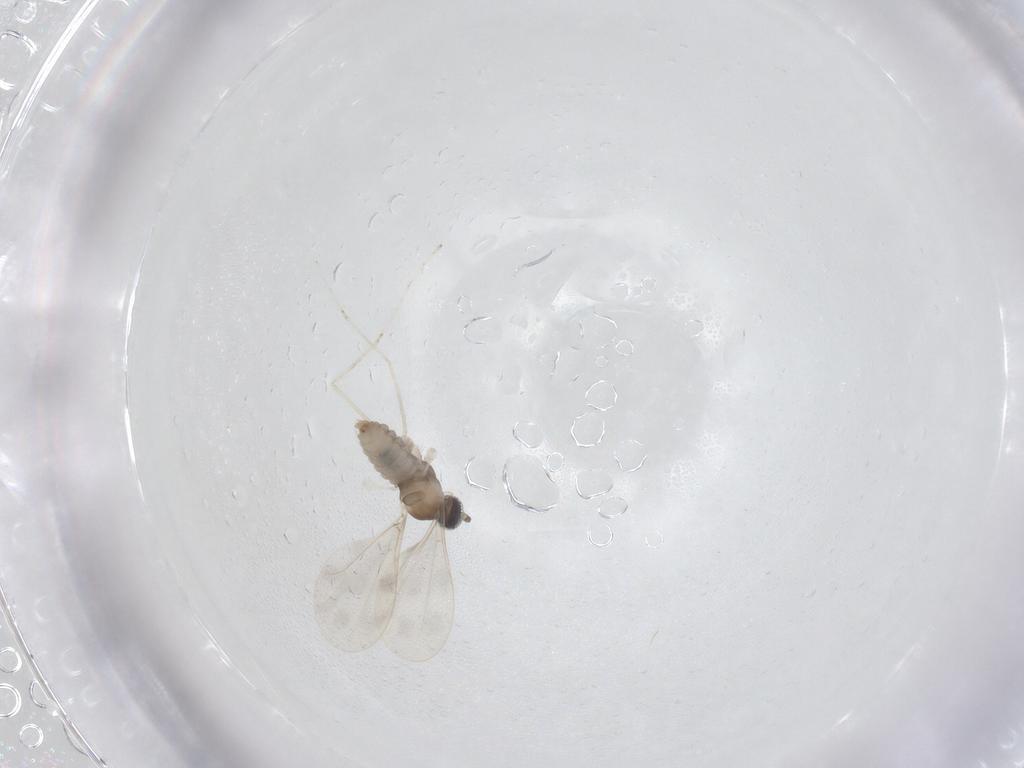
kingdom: Animalia
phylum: Arthropoda
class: Insecta
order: Diptera
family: Cecidomyiidae
